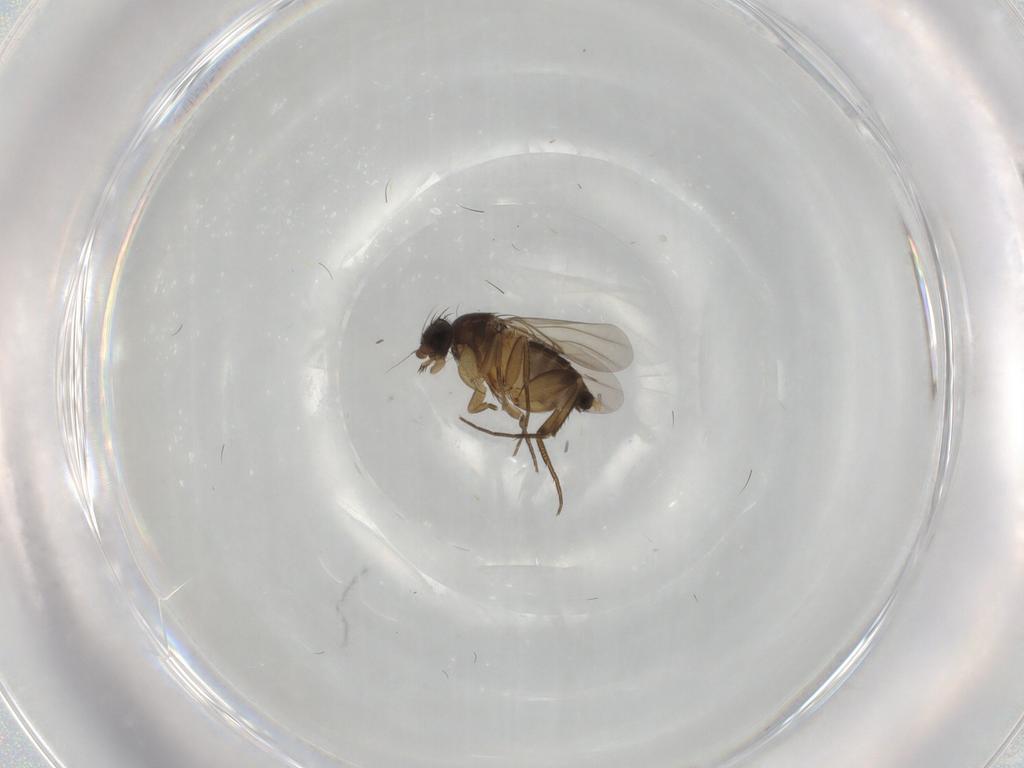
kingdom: Animalia
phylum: Arthropoda
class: Insecta
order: Diptera
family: Phoridae
